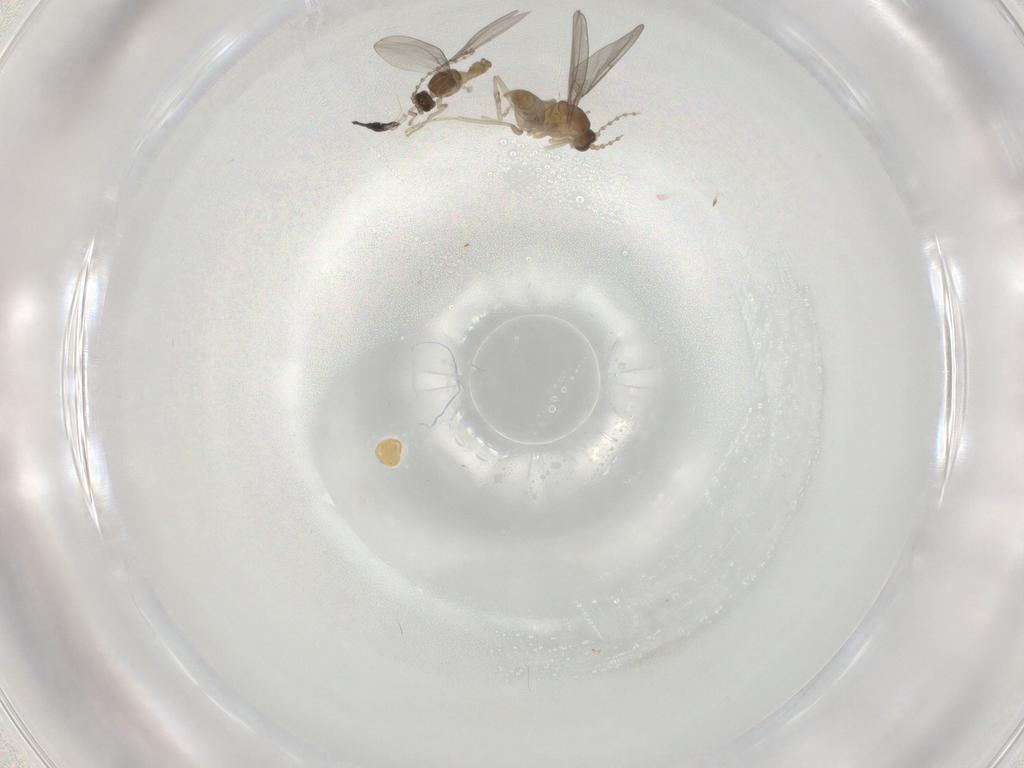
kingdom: Animalia
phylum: Arthropoda
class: Insecta
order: Diptera
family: Cecidomyiidae
